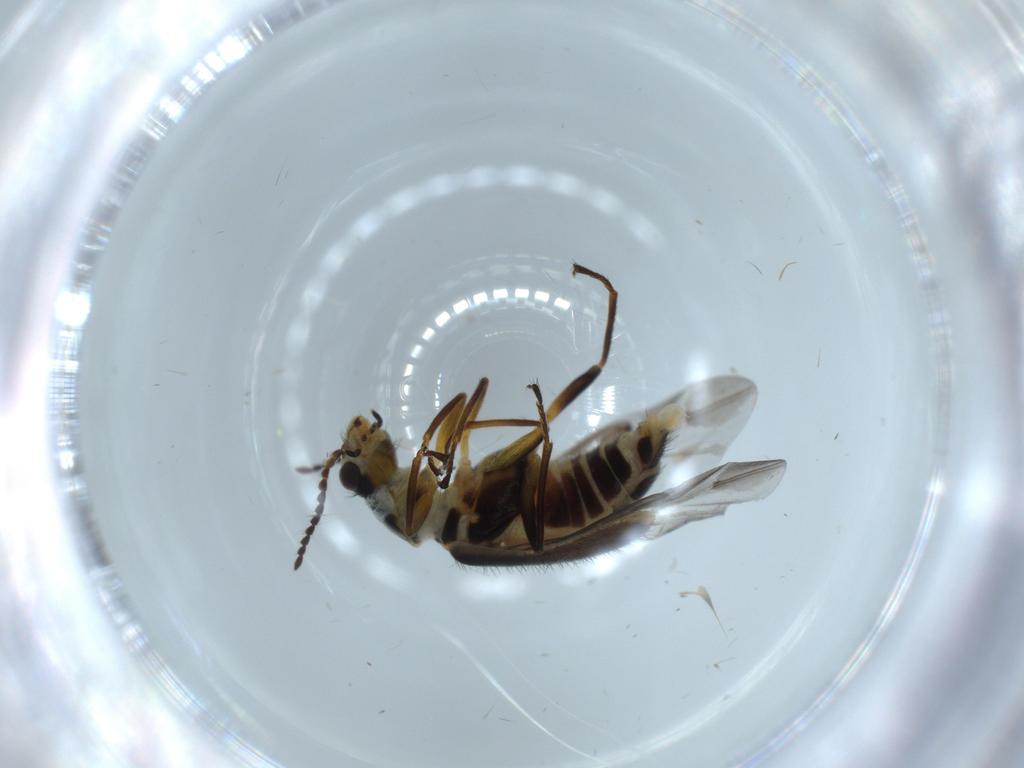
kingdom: Animalia
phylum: Arthropoda
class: Insecta
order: Coleoptera
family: Melyridae
